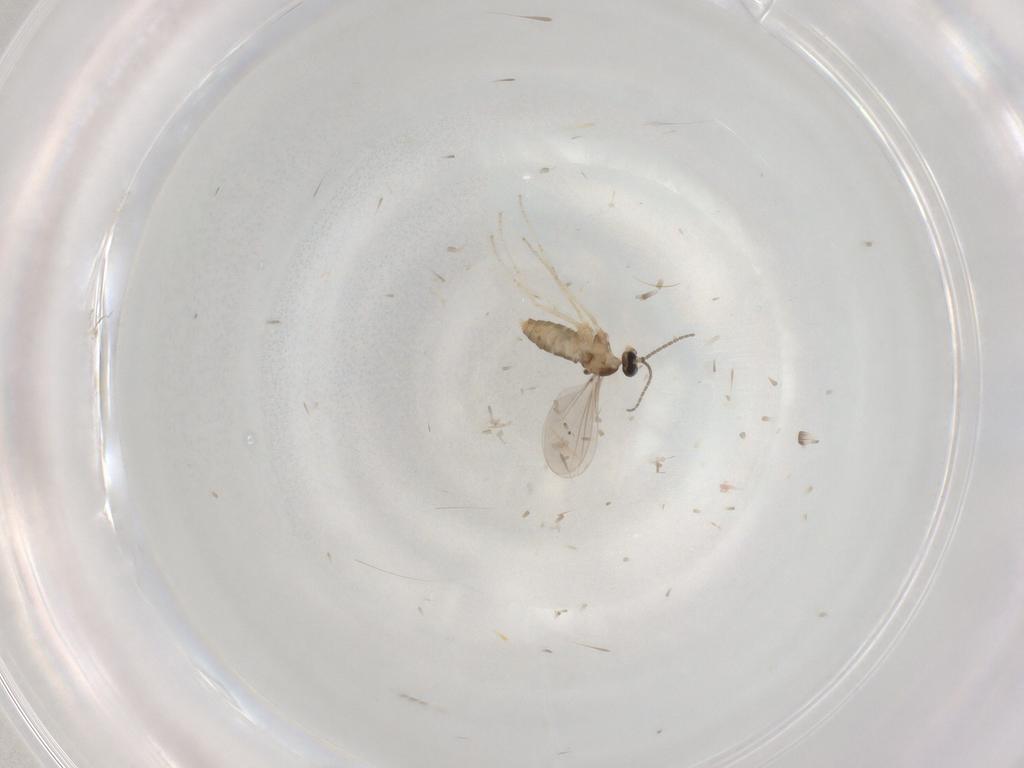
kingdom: Animalia
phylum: Arthropoda
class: Insecta
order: Diptera
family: Cecidomyiidae
